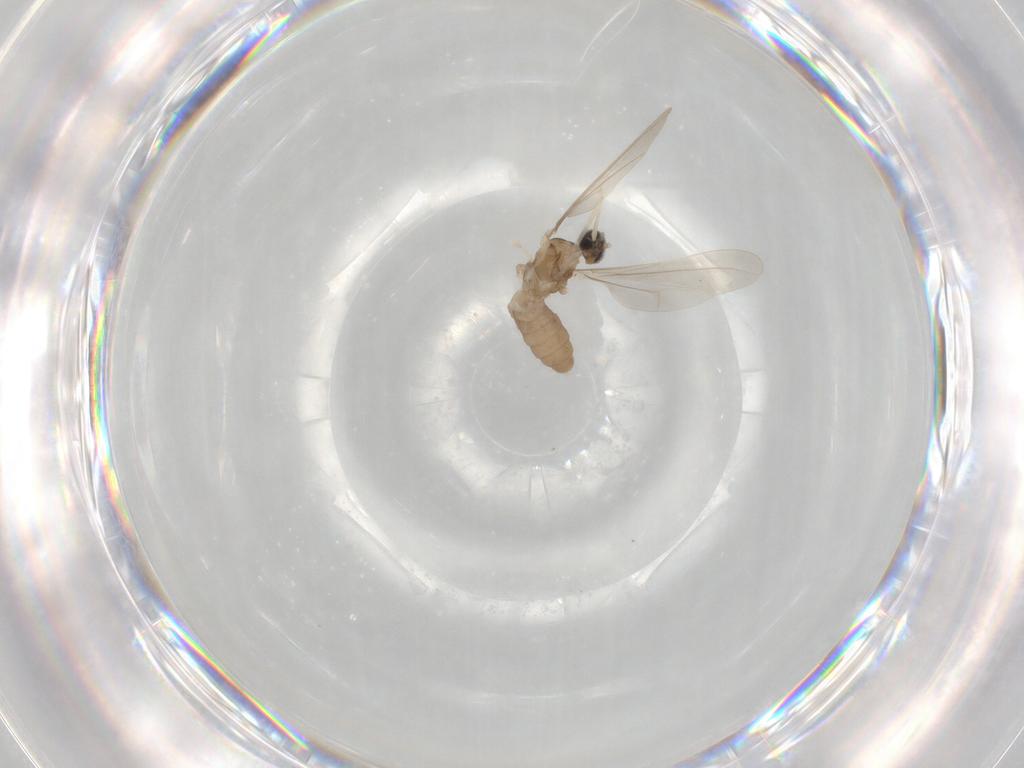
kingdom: Animalia
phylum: Arthropoda
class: Insecta
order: Diptera
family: Cecidomyiidae
